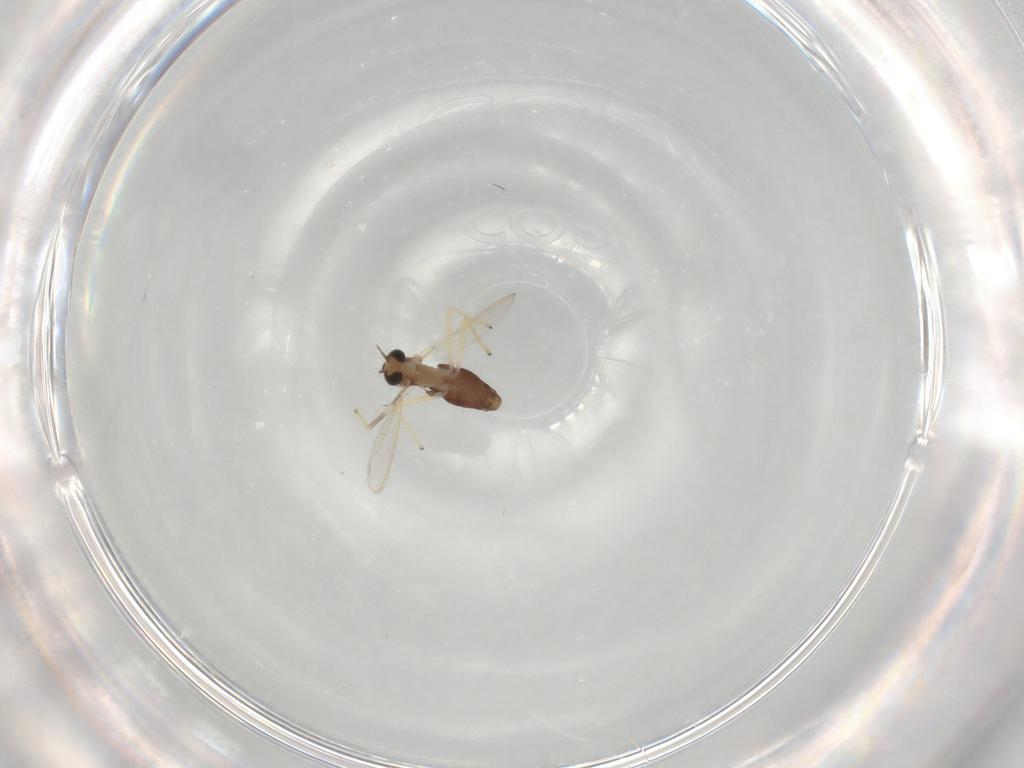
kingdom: Animalia
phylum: Arthropoda
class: Insecta
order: Diptera
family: Chironomidae
